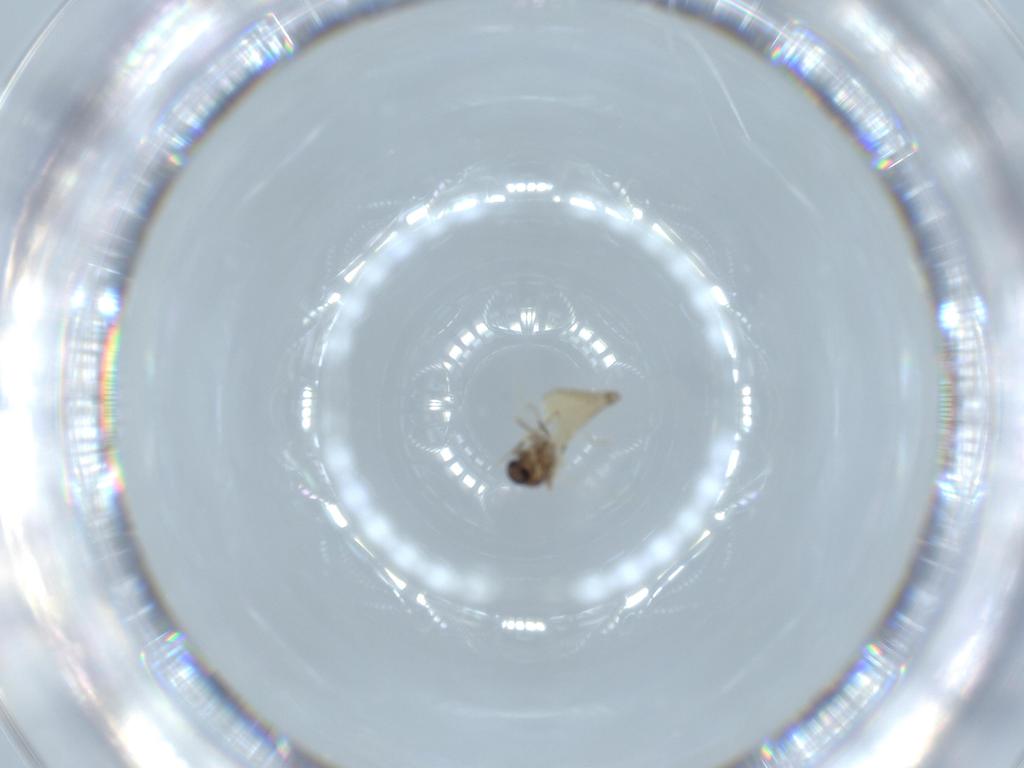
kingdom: Animalia
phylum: Arthropoda
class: Insecta
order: Diptera
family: Ceratopogonidae
